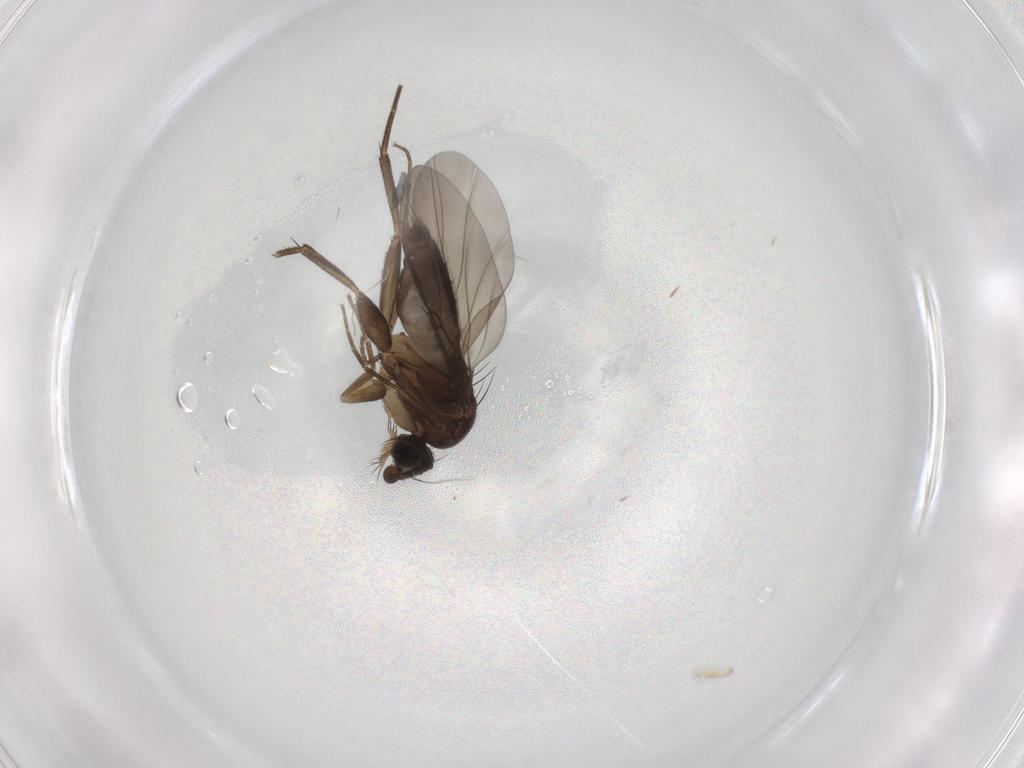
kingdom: Animalia
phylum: Arthropoda
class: Insecta
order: Diptera
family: Phoridae
